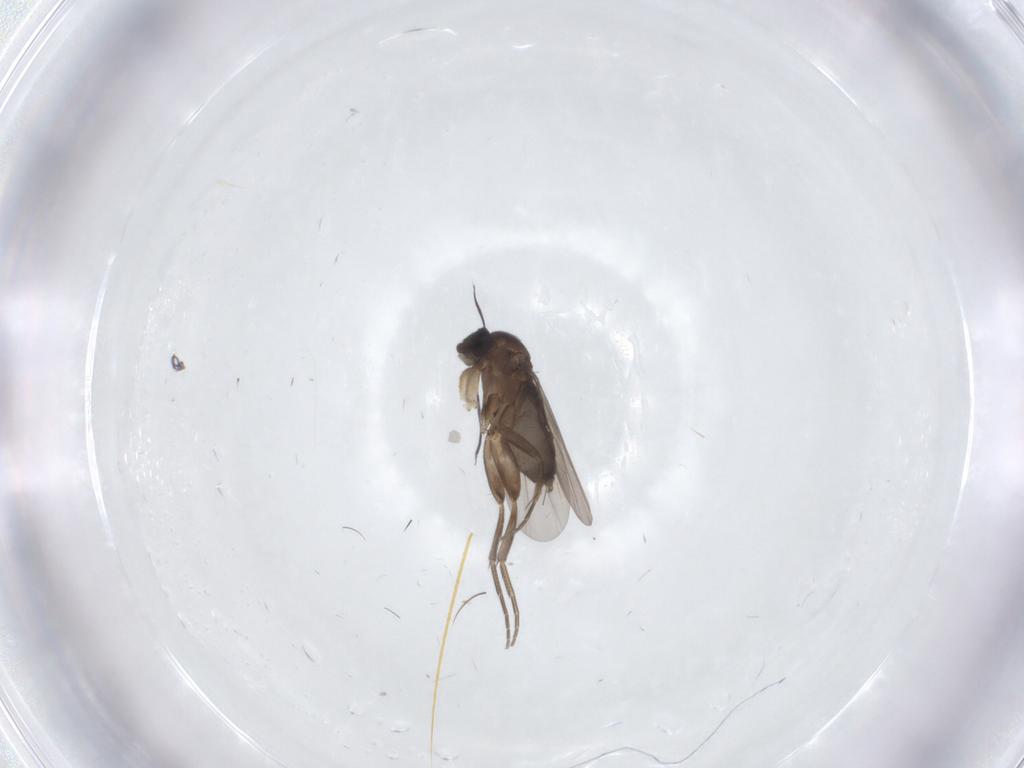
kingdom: Animalia
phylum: Arthropoda
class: Insecta
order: Diptera
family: Phoridae
